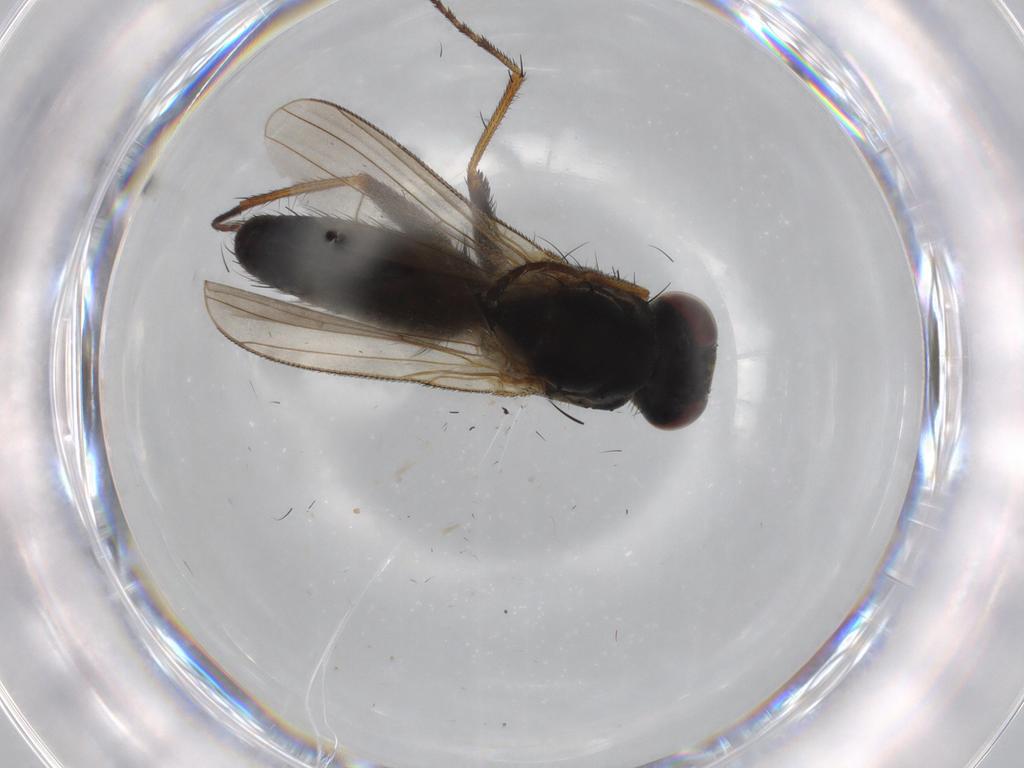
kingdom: Animalia
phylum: Arthropoda
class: Insecta
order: Diptera
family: Muscidae
